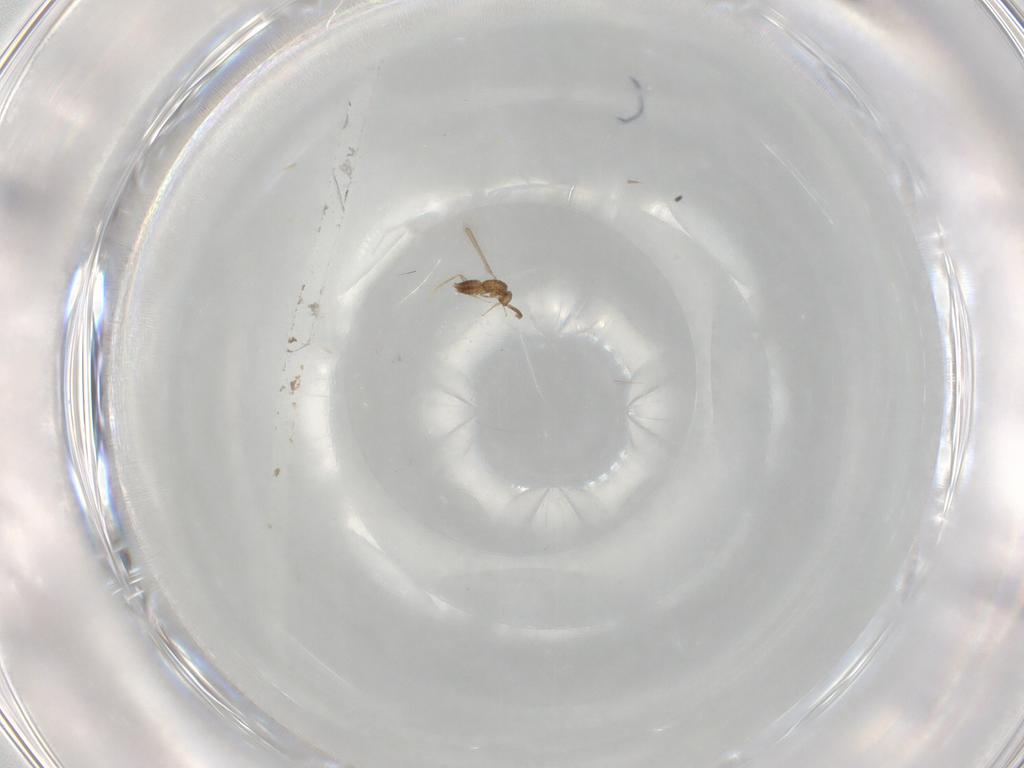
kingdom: Animalia
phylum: Arthropoda
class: Insecta
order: Hymenoptera
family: Mymaridae
